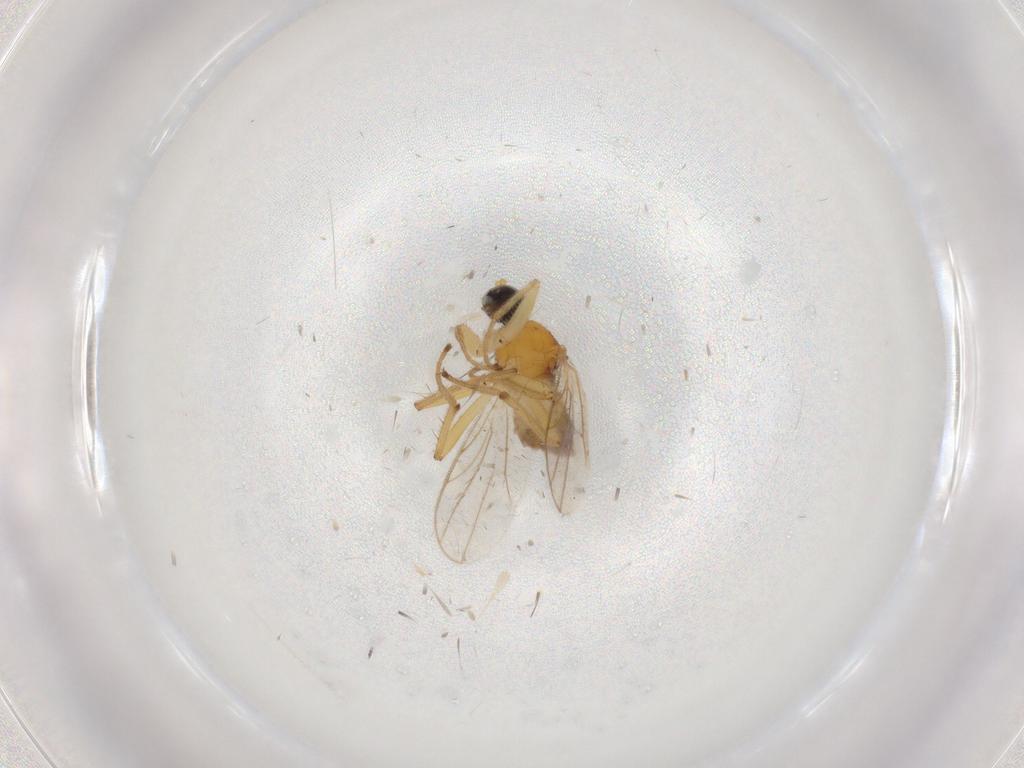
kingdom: Animalia
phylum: Arthropoda
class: Insecta
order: Diptera
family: Hybotidae
